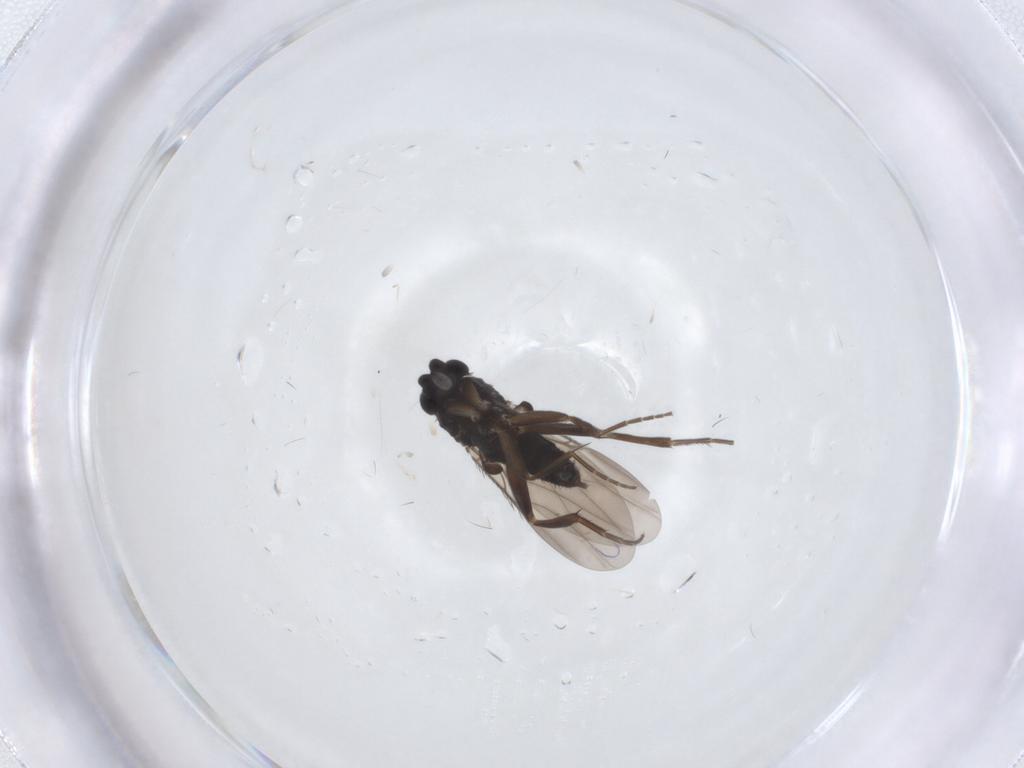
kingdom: Animalia
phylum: Arthropoda
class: Insecta
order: Diptera
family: Phoridae
